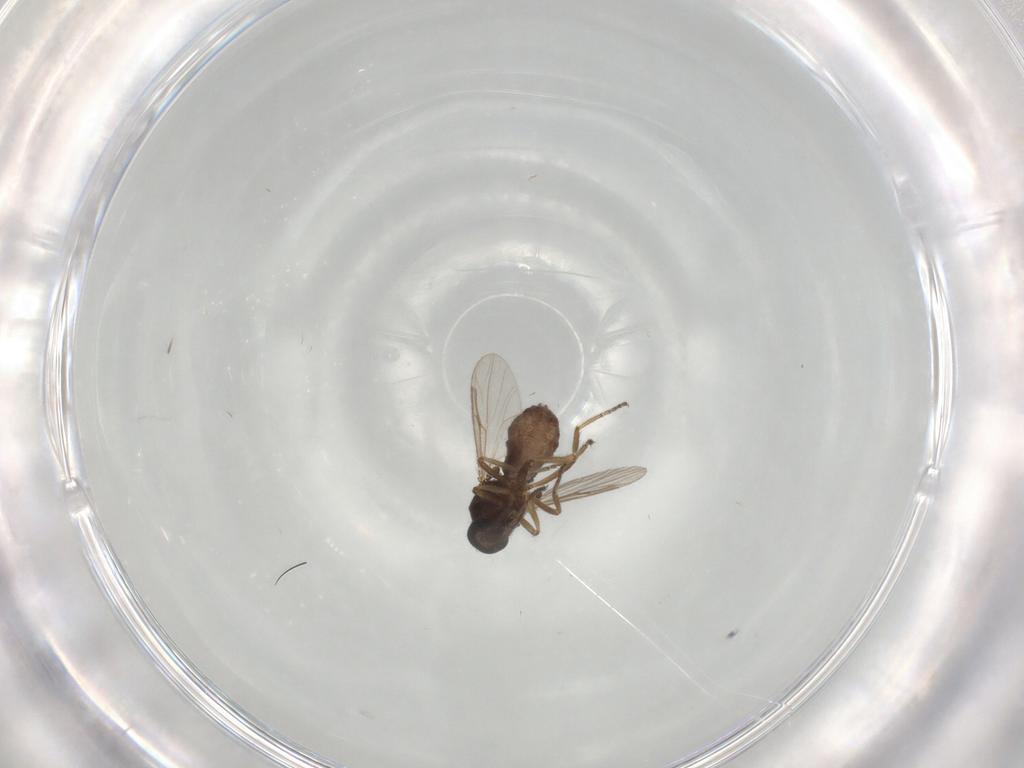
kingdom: Animalia
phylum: Arthropoda
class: Insecta
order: Diptera
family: Ceratopogonidae
